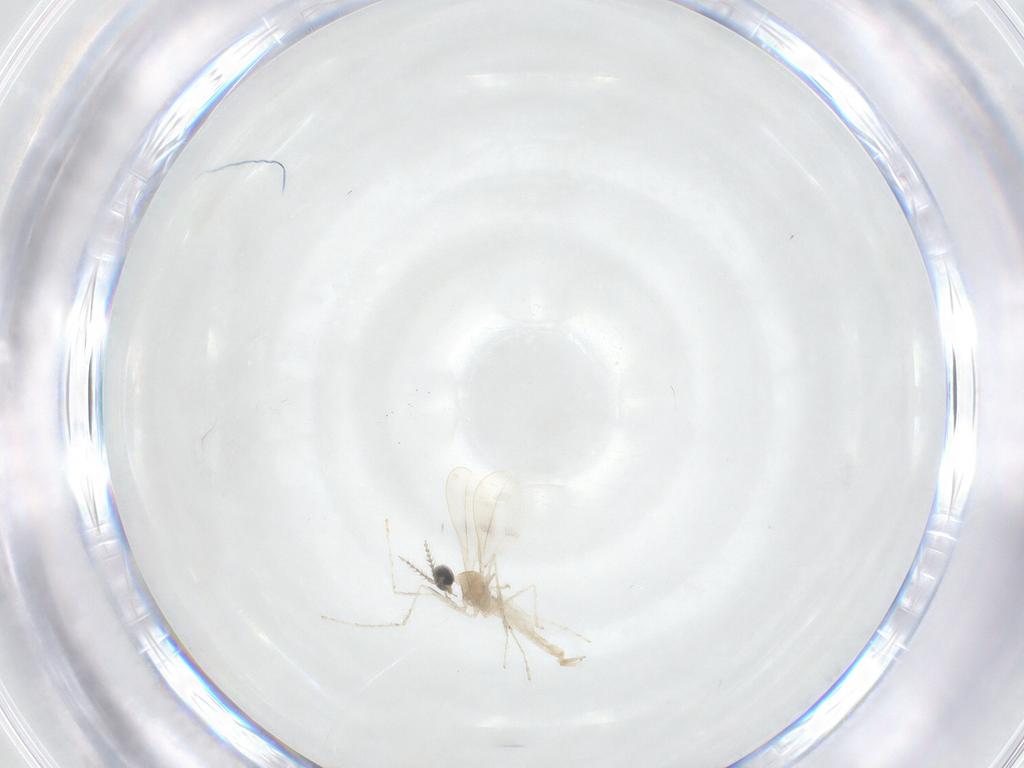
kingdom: Animalia
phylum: Arthropoda
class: Insecta
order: Diptera
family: Cecidomyiidae
